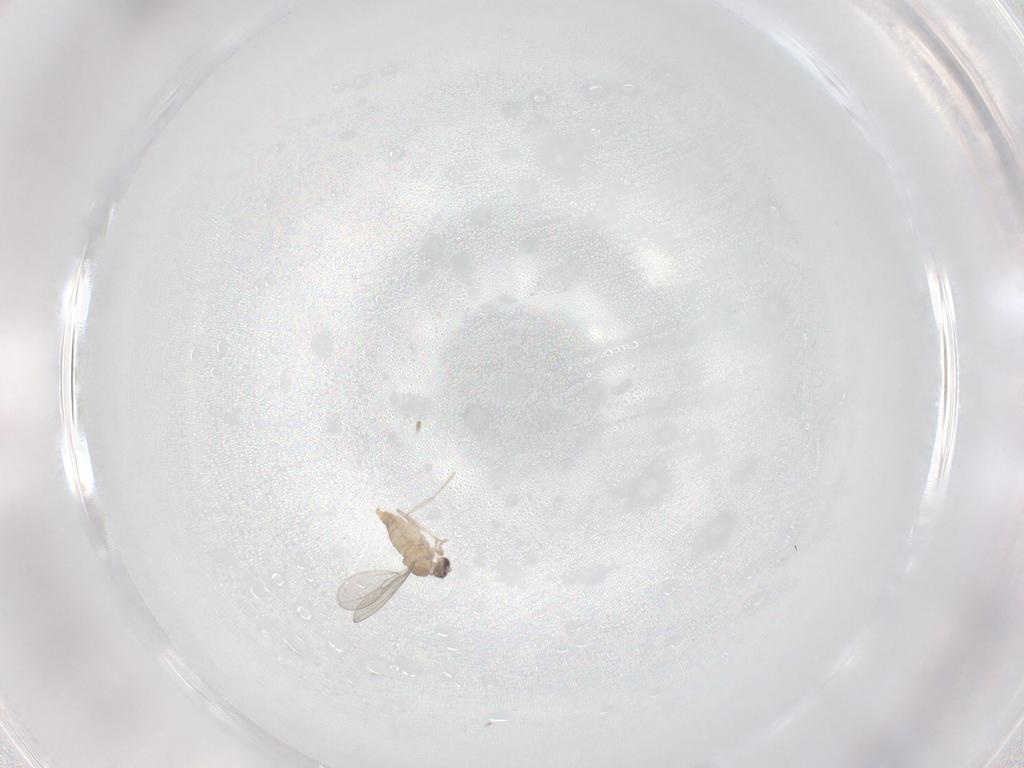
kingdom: Animalia
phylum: Arthropoda
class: Insecta
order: Diptera
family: Cecidomyiidae
